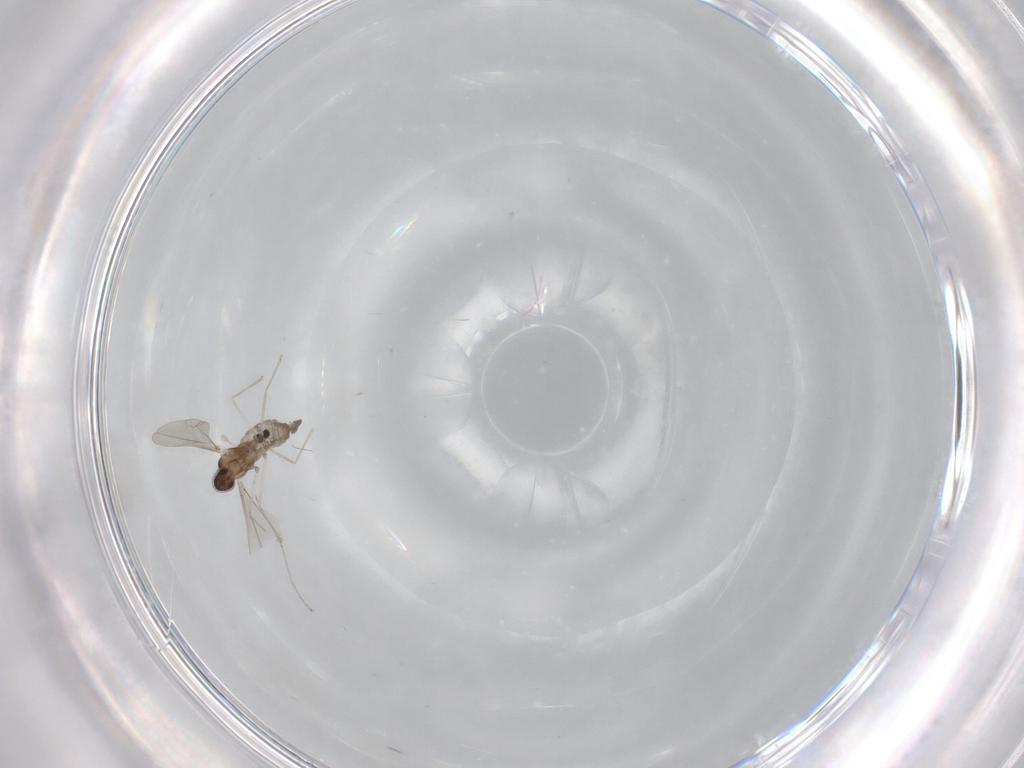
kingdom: Animalia
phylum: Arthropoda
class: Insecta
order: Diptera
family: Cecidomyiidae
